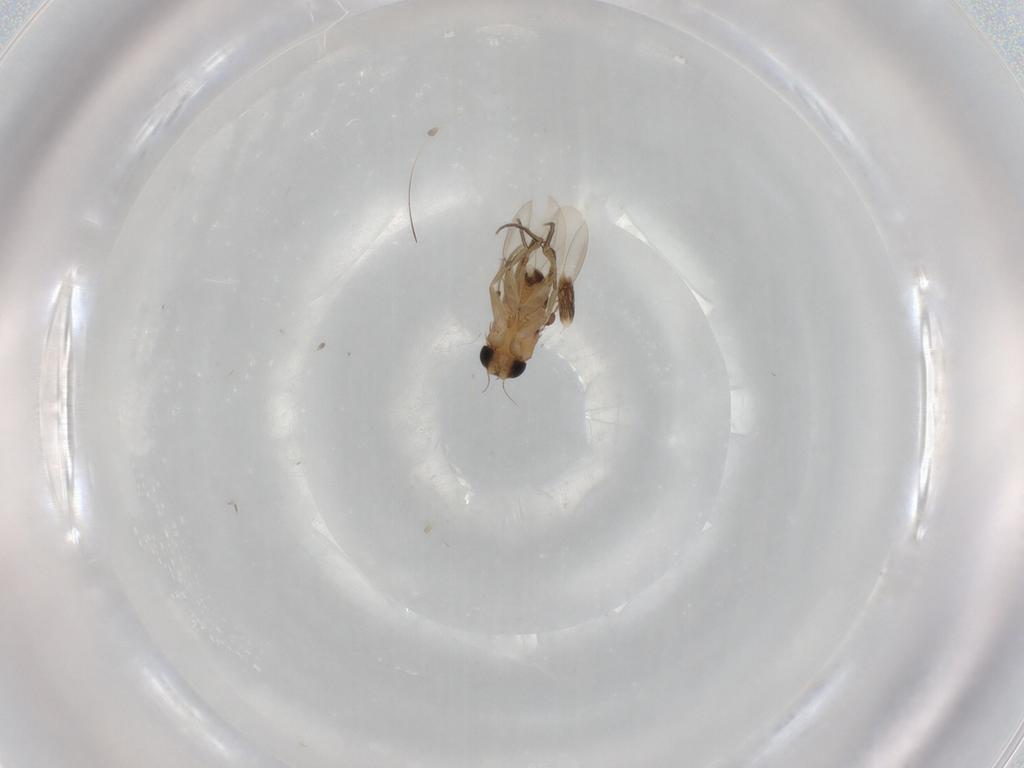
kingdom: Animalia
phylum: Arthropoda
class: Insecta
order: Diptera
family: Phoridae
